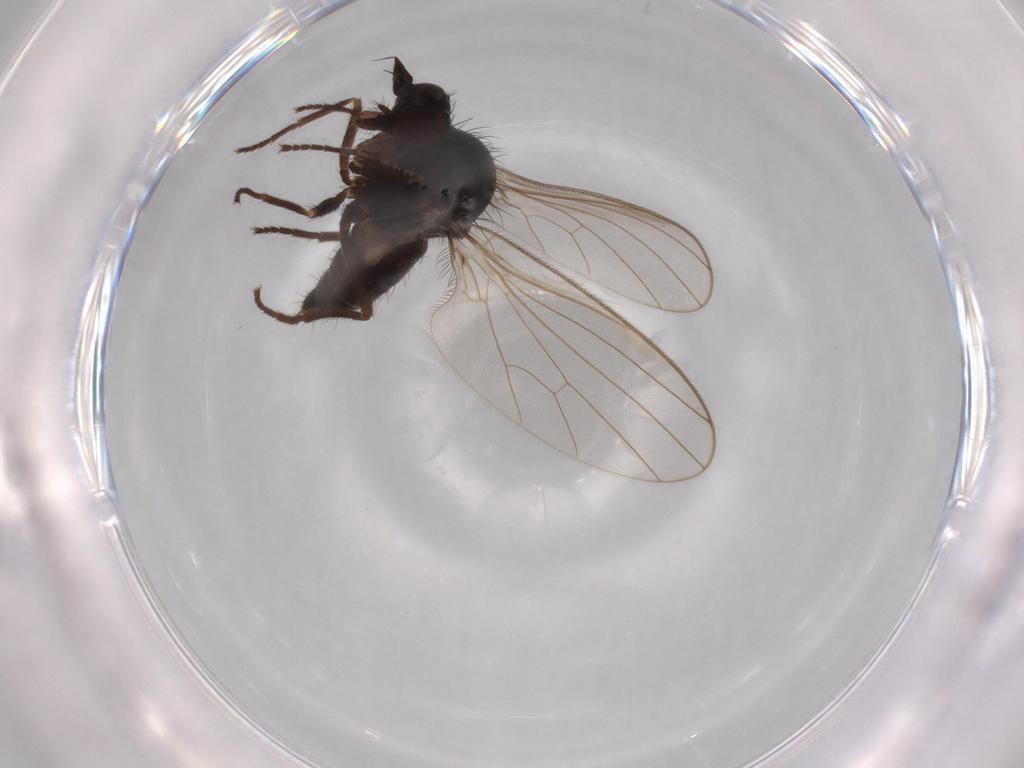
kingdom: Animalia
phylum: Arthropoda
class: Insecta
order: Diptera
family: Dolichopodidae
